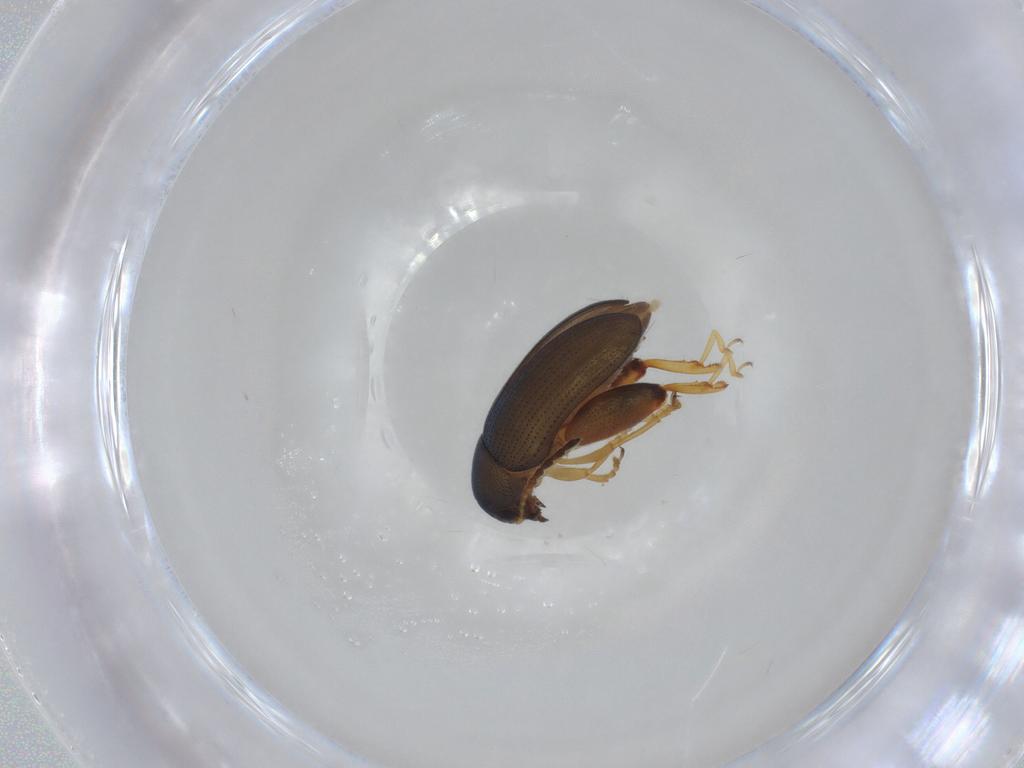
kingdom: Animalia
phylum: Arthropoda
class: Insecta
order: Coleoptera
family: Chrysomelidae
